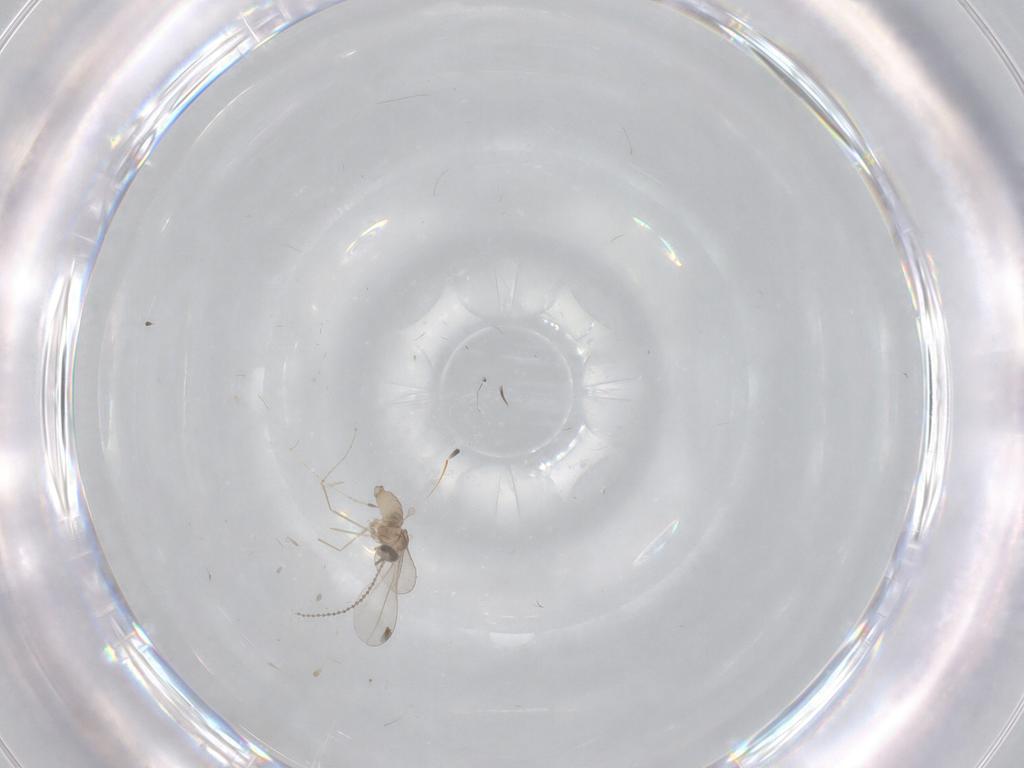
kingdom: Animalia
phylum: Arthropoda
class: Insecta
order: Diptera
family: Cecidomyiidae
